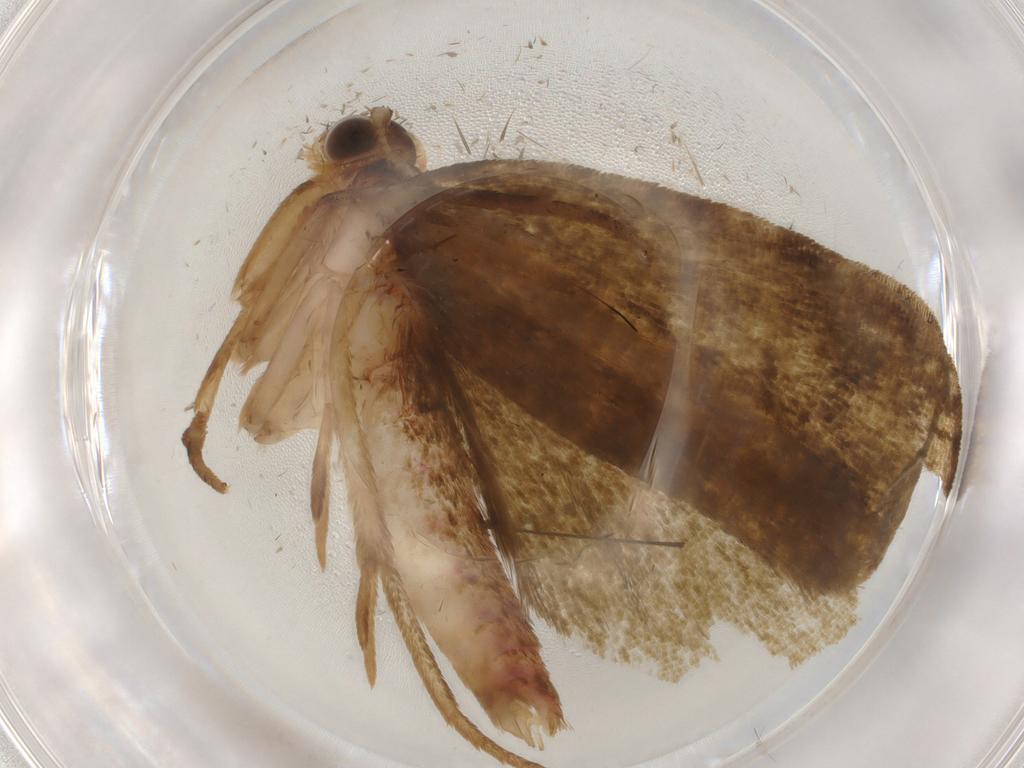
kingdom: Animalia
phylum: Arthropoda
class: Insecta
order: Lepidoptera
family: Geometridae
